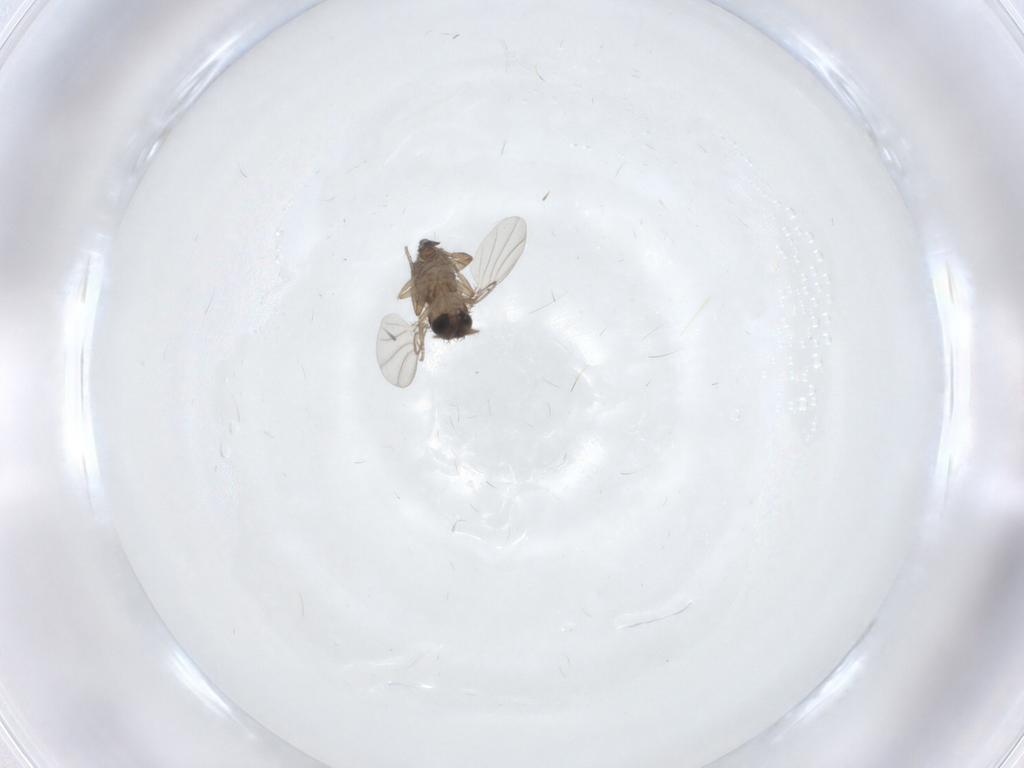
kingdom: Animalia
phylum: Arthropoda
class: Insecta
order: Diptera
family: Phoridae
